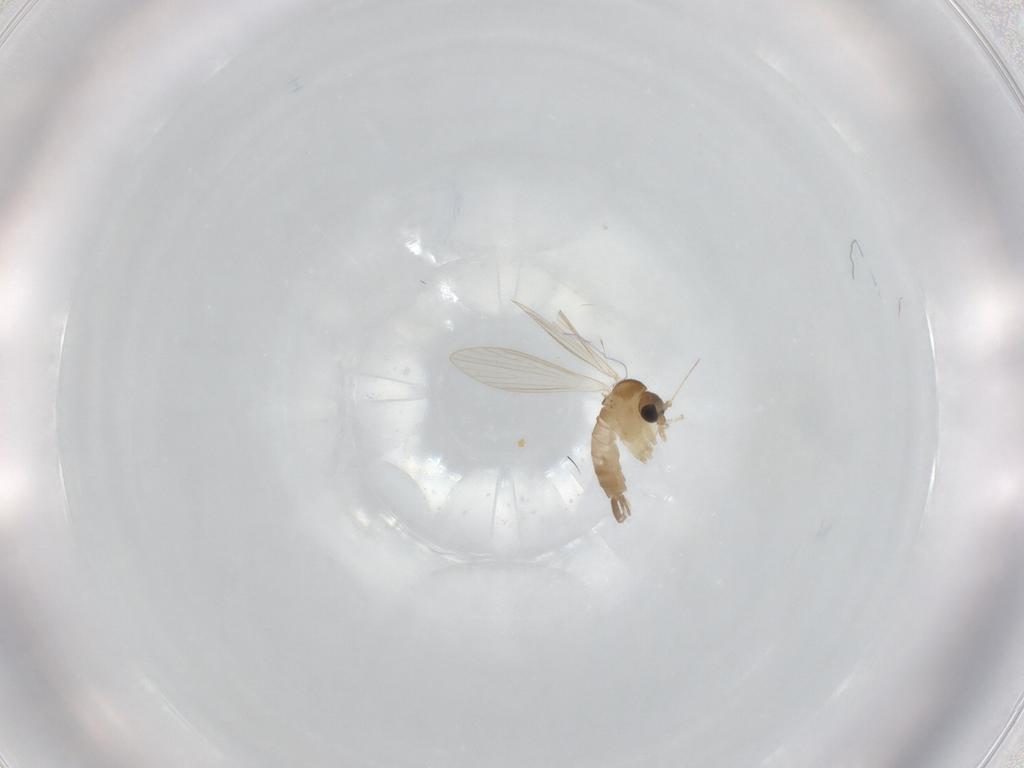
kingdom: Animalia
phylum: Arthropoda
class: Insecta
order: Diptera
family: Psychodidae
